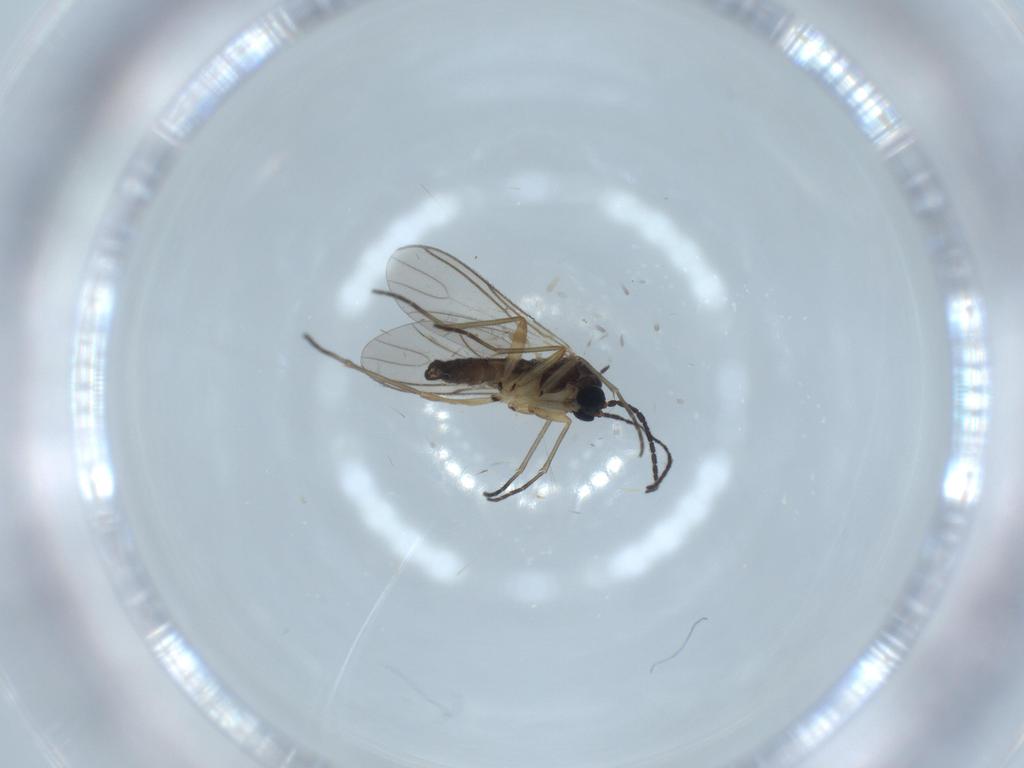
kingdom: Animalia
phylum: Arthropoda
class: Insecta
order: Diptera
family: Sciaridae
